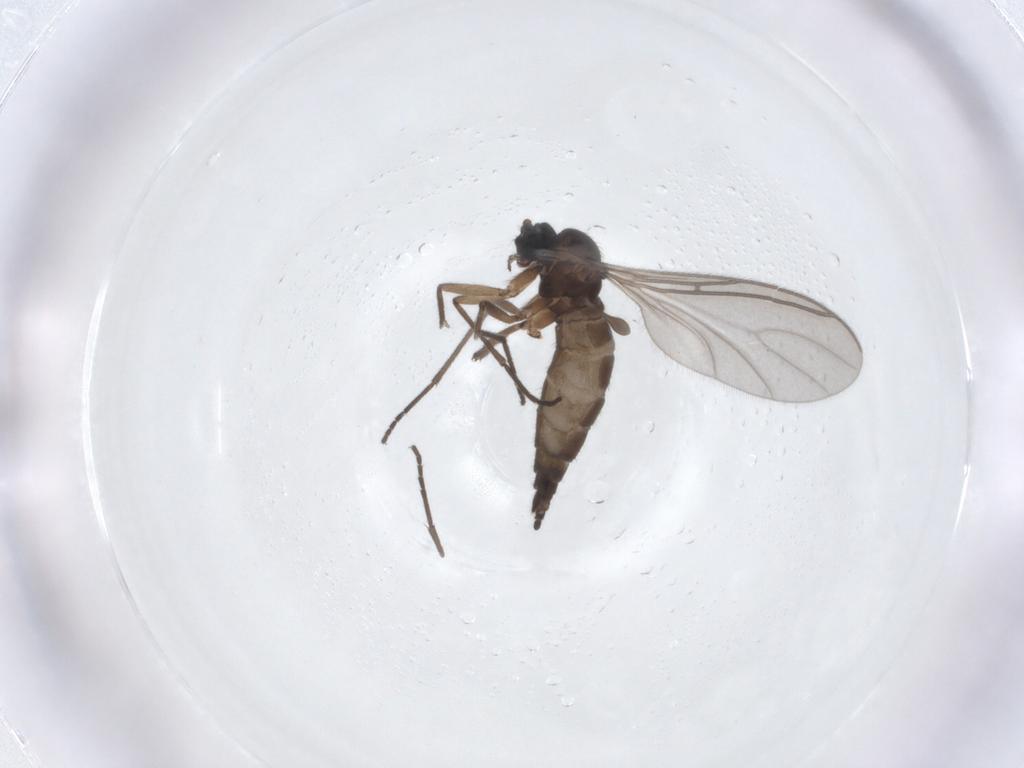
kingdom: Animalia
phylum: Arthropoda
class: Insecta
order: Diptera
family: Sciaridae
